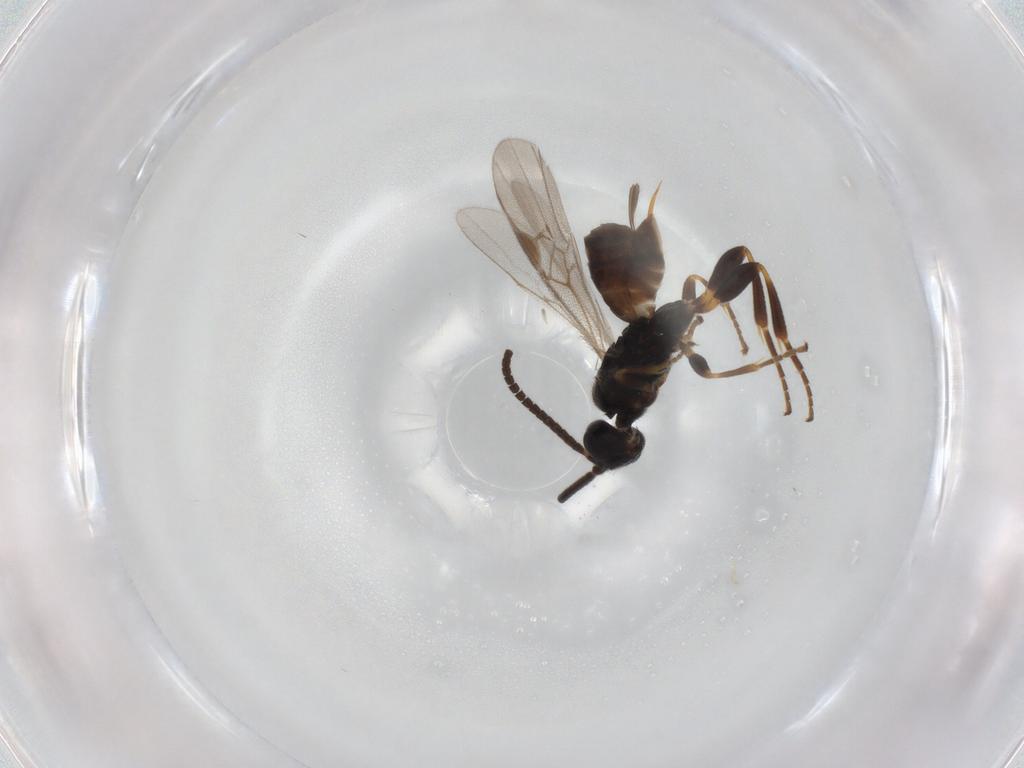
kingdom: Animalia
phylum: Arthropoda
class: Insecta
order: Hymenoptera
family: Braconidae
